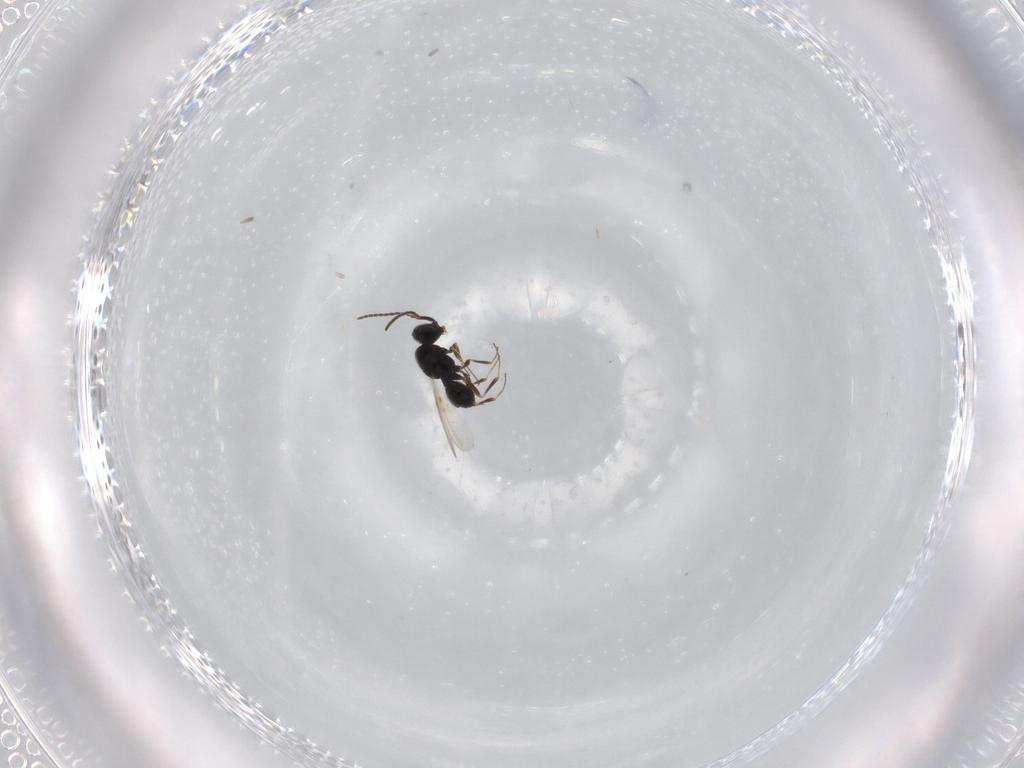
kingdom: Animalia
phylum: Arthropoda
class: Insecta
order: Hymenoptera
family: Scelionidae
